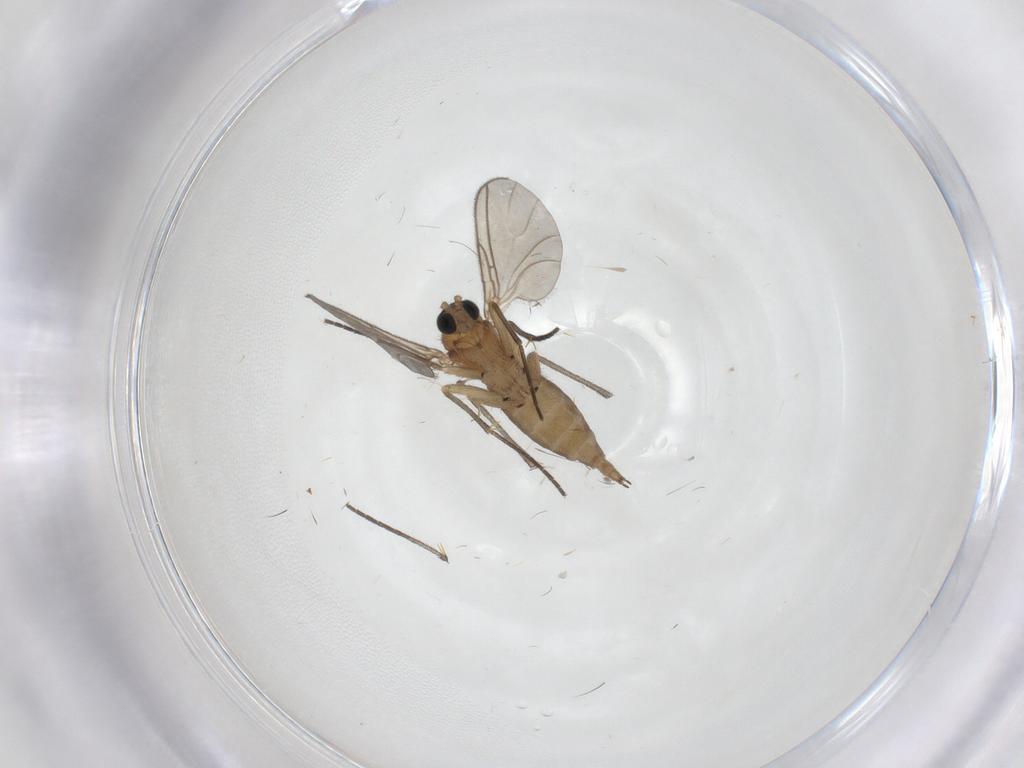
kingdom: Animalia
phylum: Arthropoda
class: Insecta
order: Diptera
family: Sciaridae
